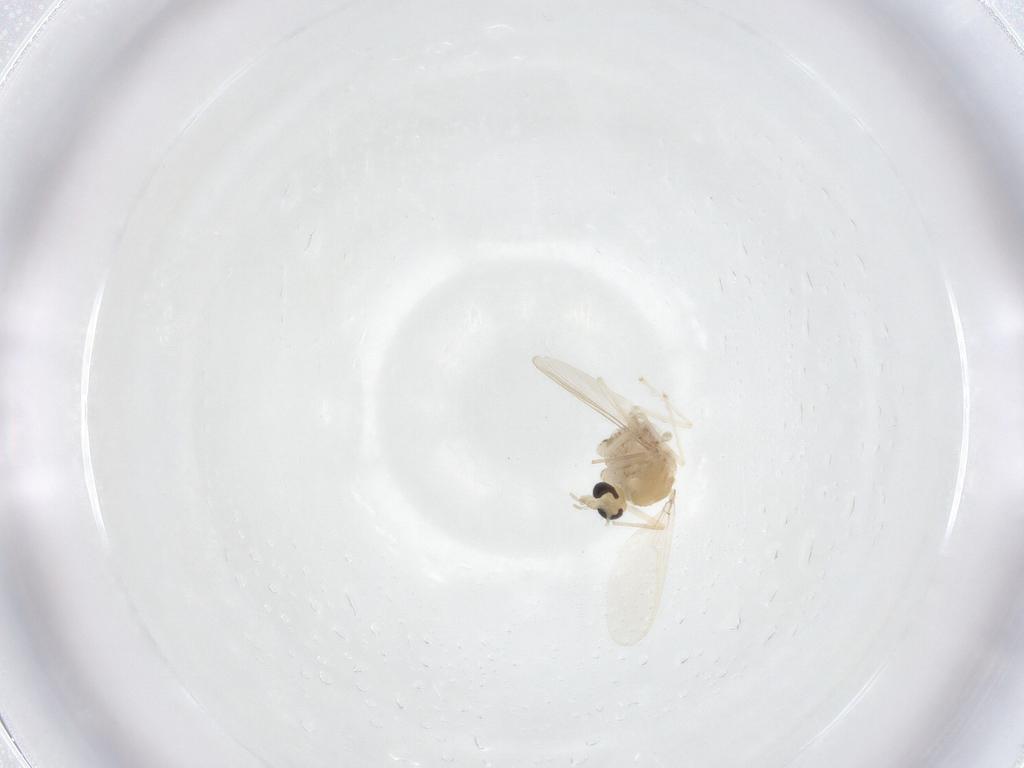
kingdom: Animalia
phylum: Arthropoda
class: Insecta
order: Diptera
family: Chironomidae
